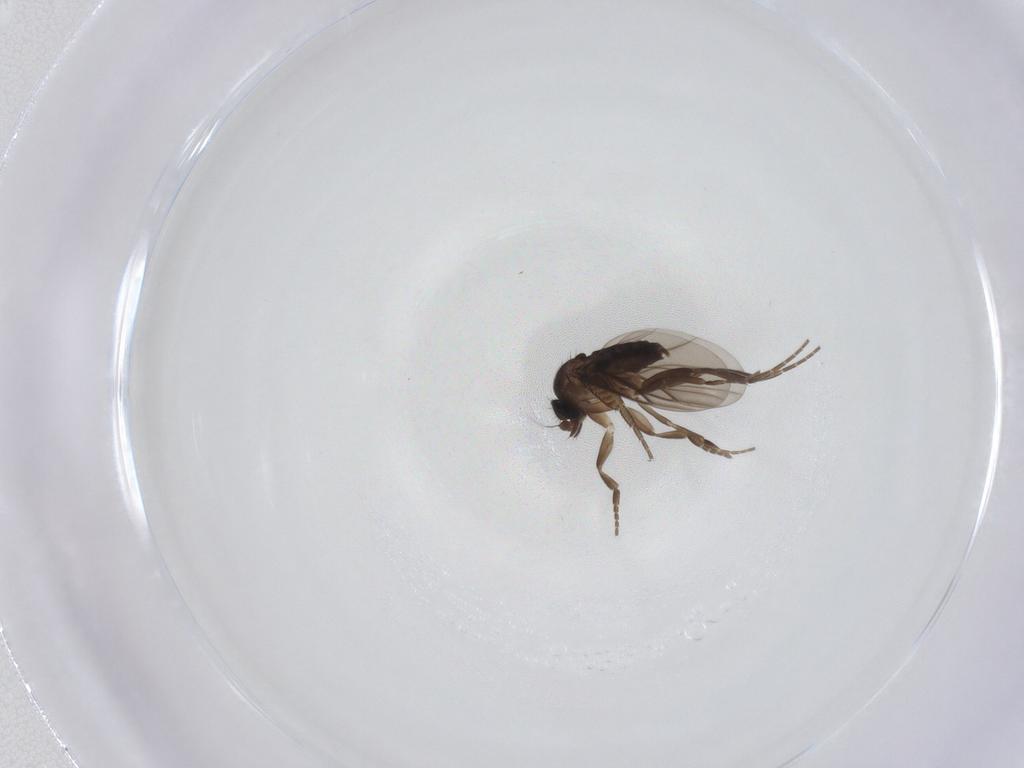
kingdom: Animalia
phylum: Arthropoda
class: Insecta
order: Diptera
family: Phoridae
